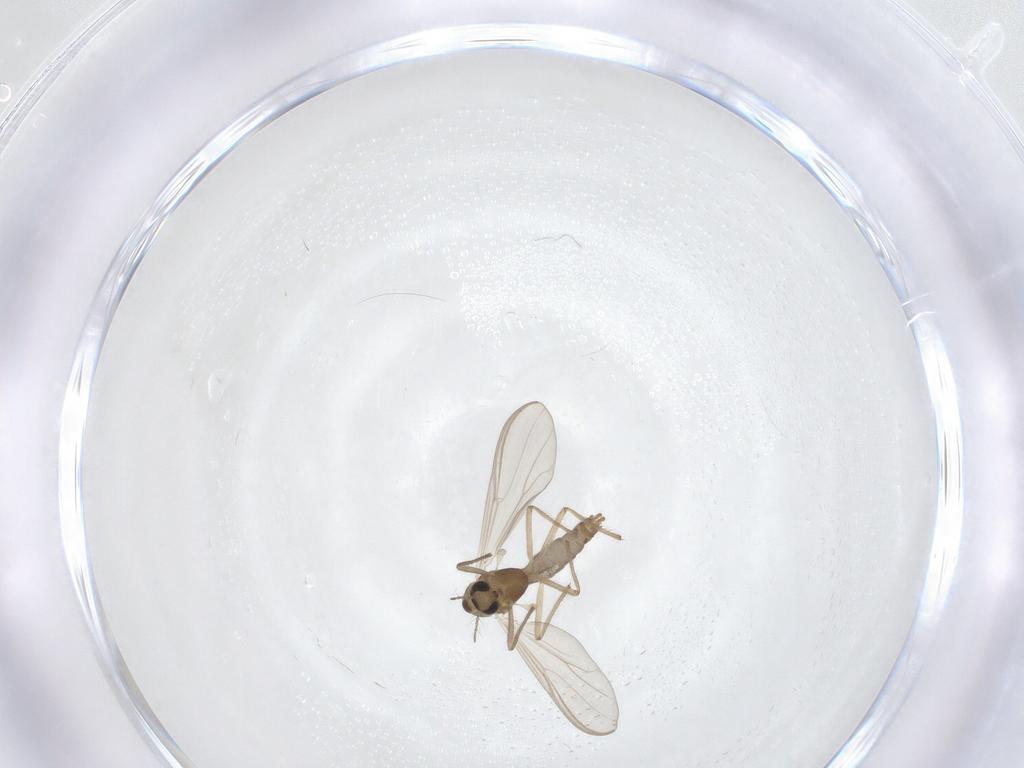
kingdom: Animalia
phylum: Arthropoda
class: Insecta
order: Diptera
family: Chironomidae
